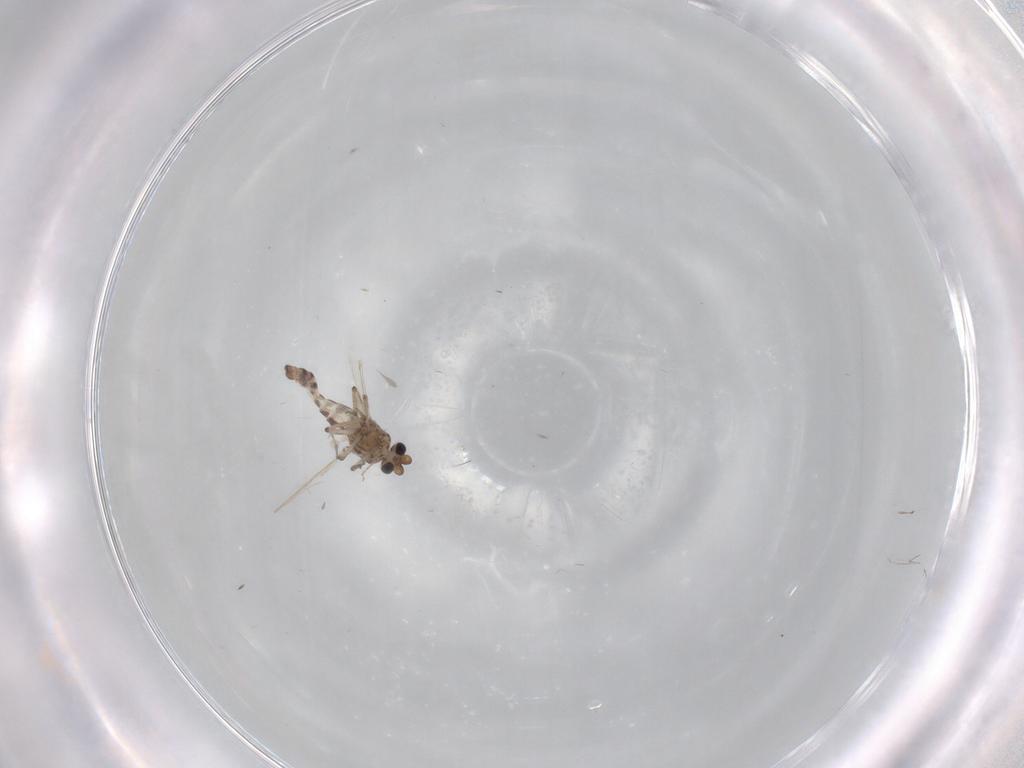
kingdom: Animalia
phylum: Arthropoda
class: Insecta
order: Diptera
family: Ceratopogonidae
